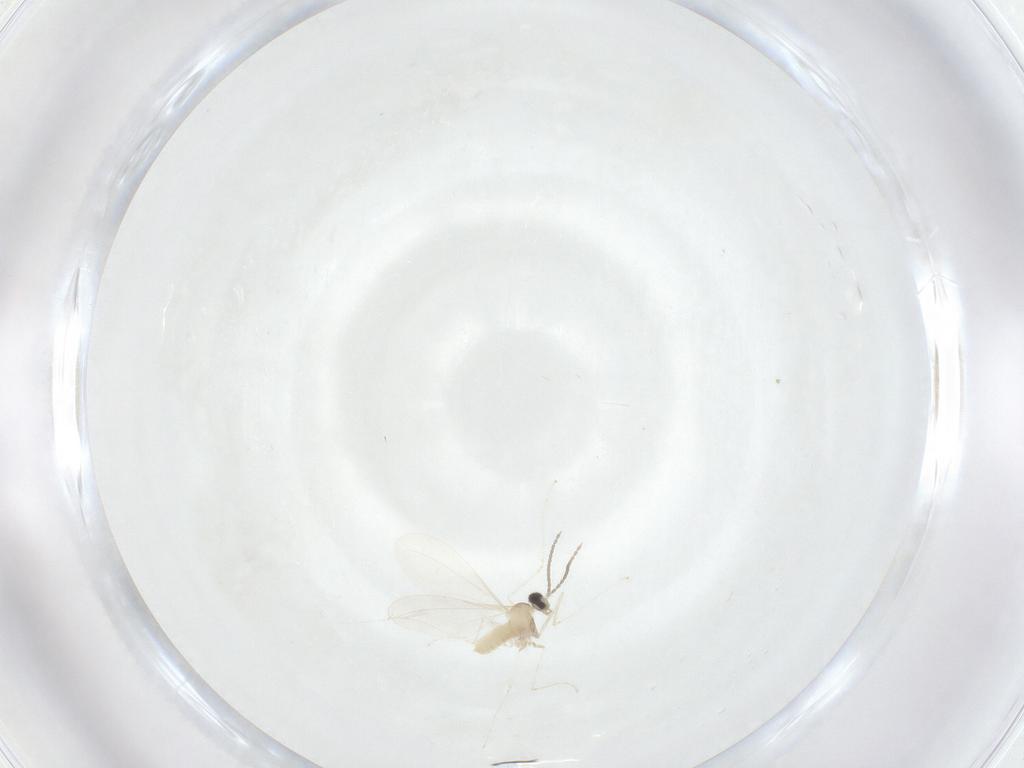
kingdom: Animalia
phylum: Arthropoda
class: Insecta
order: Diptera
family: Cecidomyiidae
